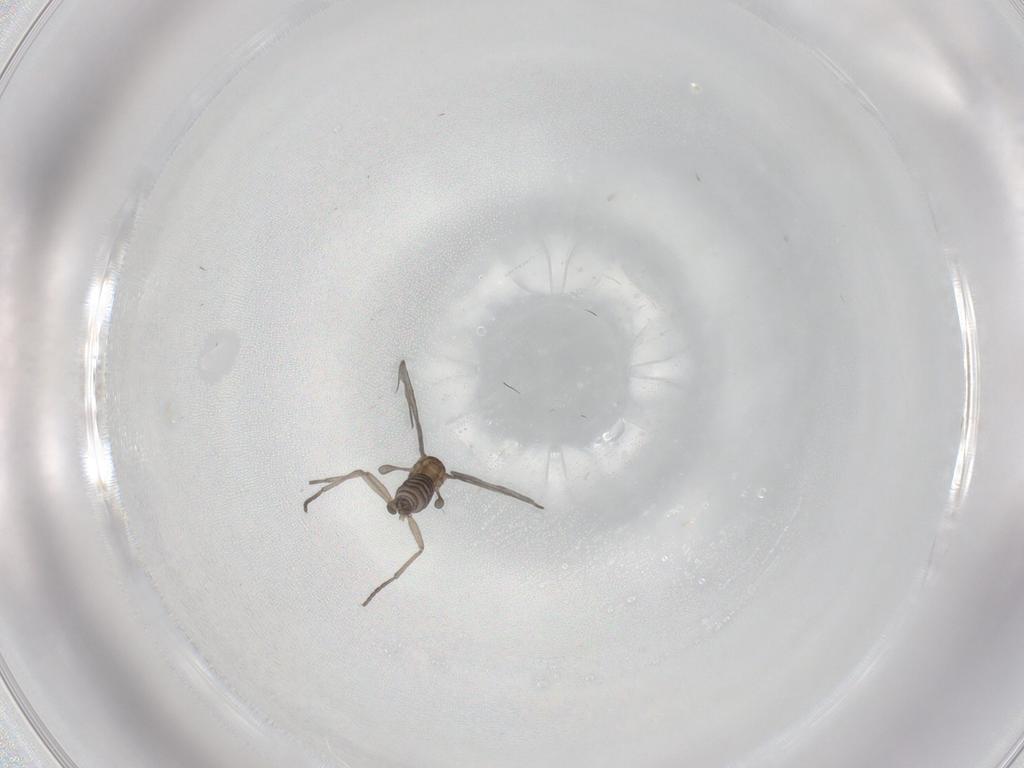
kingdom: Animalia
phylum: Arthropoda
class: Insecta
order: Diptera
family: Sciaridae
